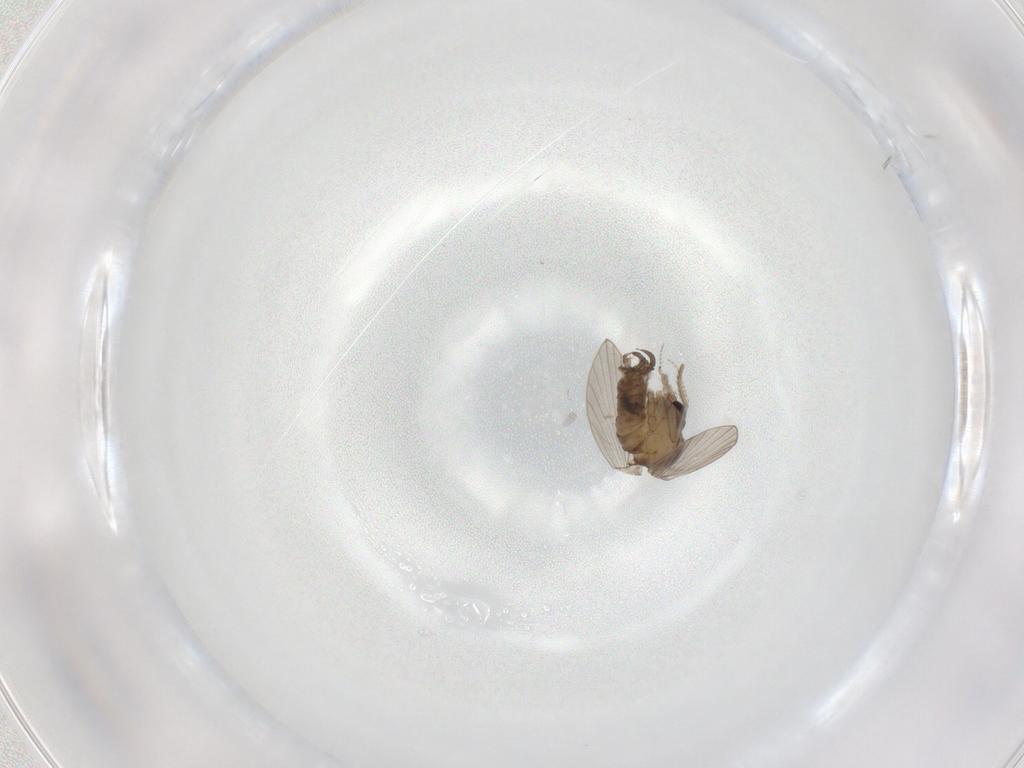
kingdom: Animalia
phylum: Arthropoda
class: Insecta
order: Diptera
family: Psychodidae
